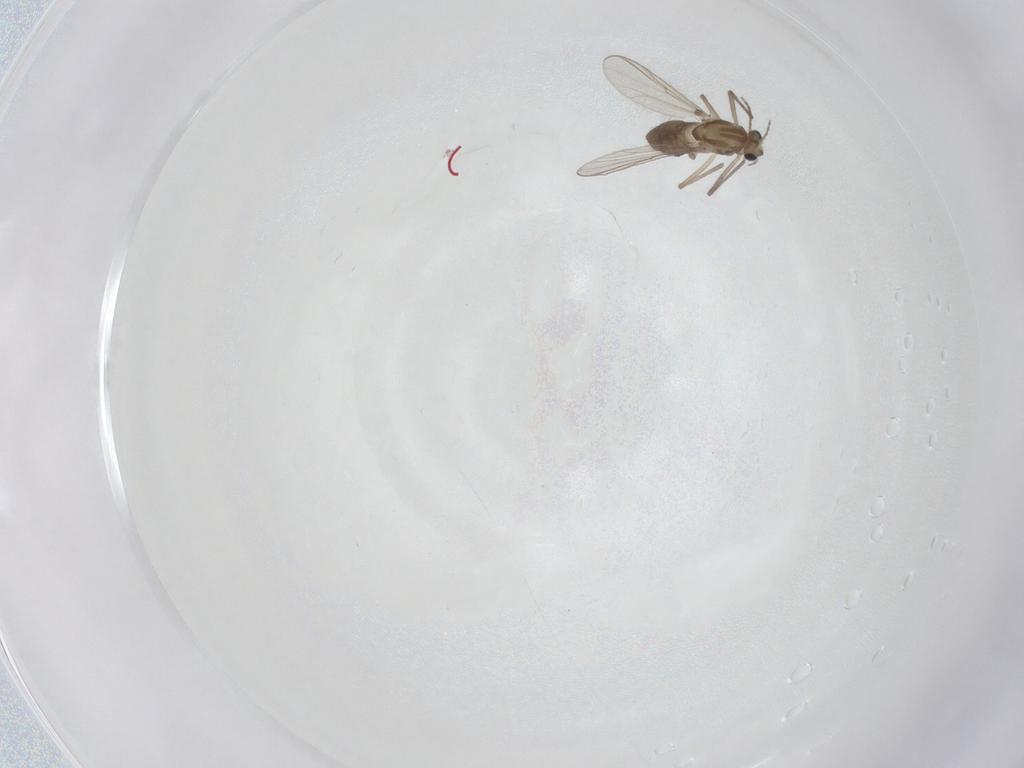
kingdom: Animalia
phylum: Arthropoda
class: Insecta
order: Diptera
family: Chironomidae
